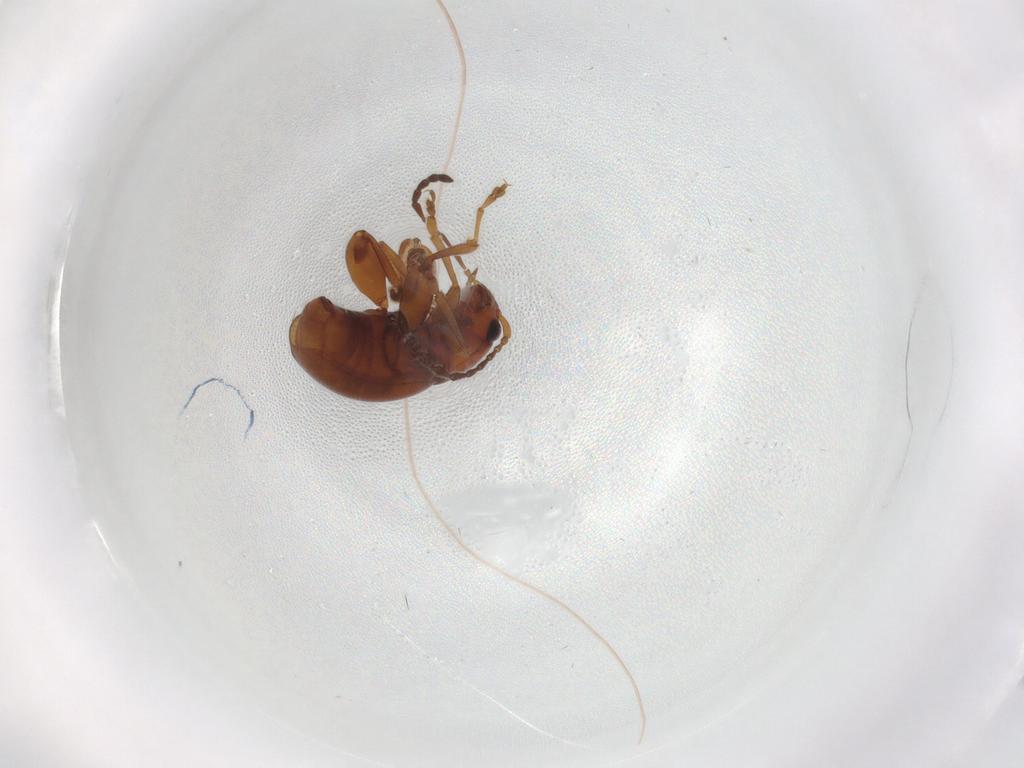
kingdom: Animalia
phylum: Arthropoda
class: Insecta
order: Coleoptera
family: Chrysomelidae
